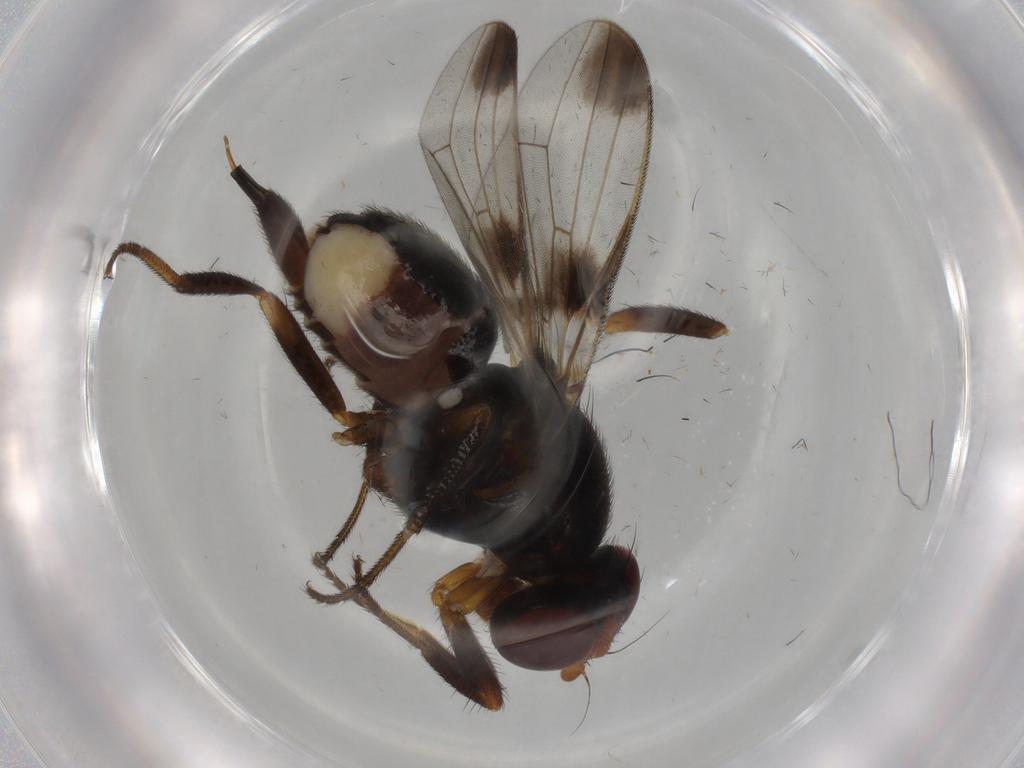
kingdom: Animalia
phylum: Arthropoda
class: Insecta
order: Diptera
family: Ulidiidae
